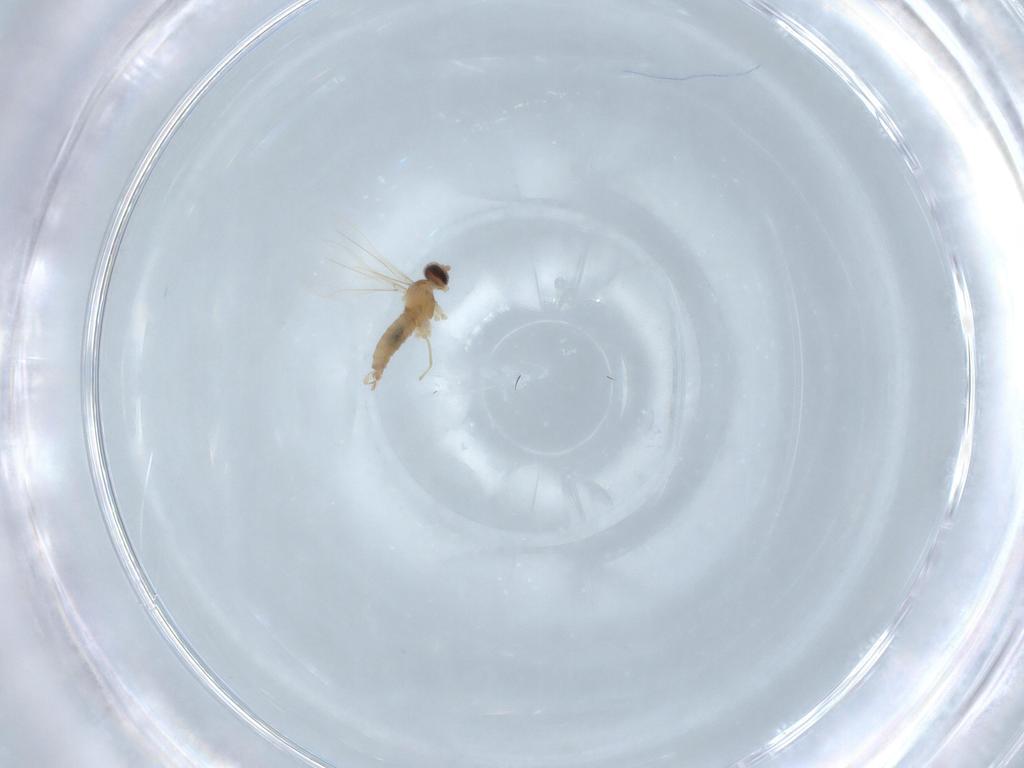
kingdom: Animalia
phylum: Arthropoda
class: Insecta
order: Diptera
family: Cecidomyiidae
